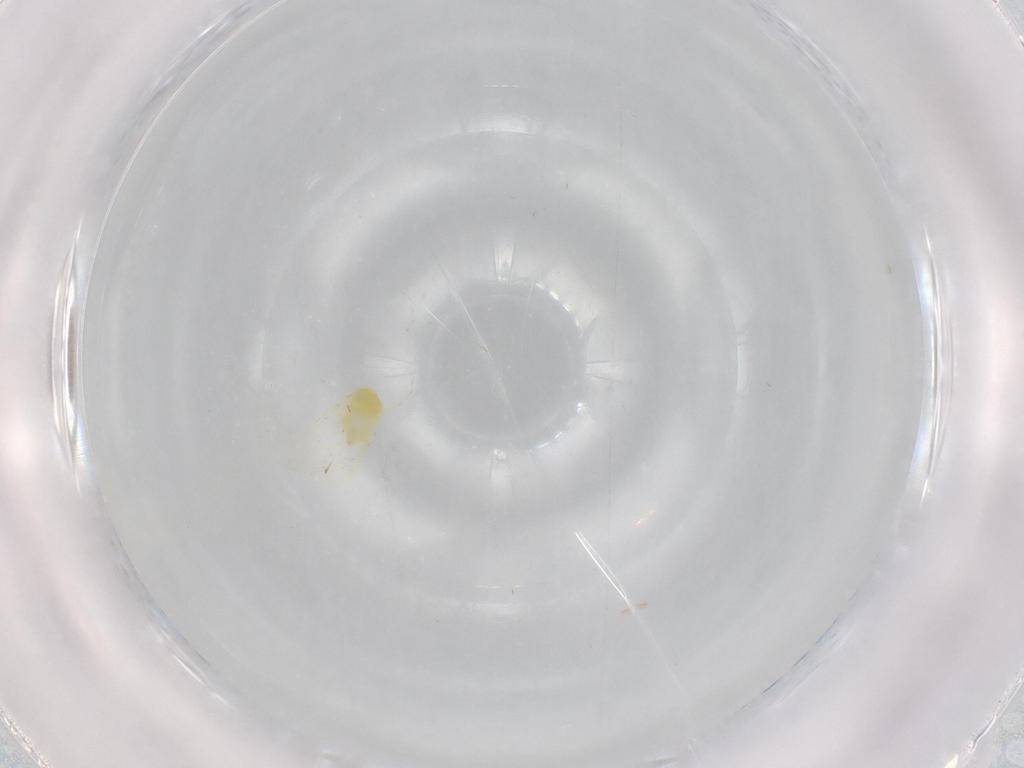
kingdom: Animalia
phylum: Arthropoda
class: Insecta
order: Hemiptera
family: Aleyrodidae
